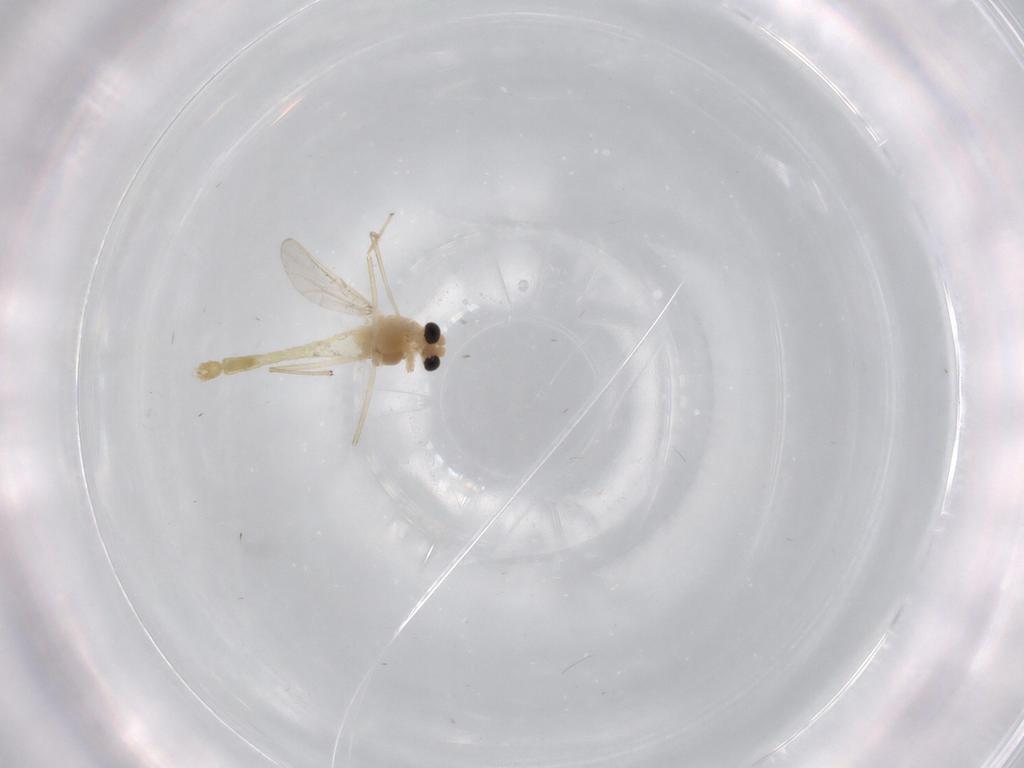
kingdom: Animalia
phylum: Arthropoda
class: Insecta
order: Diptera
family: Chironomidae
